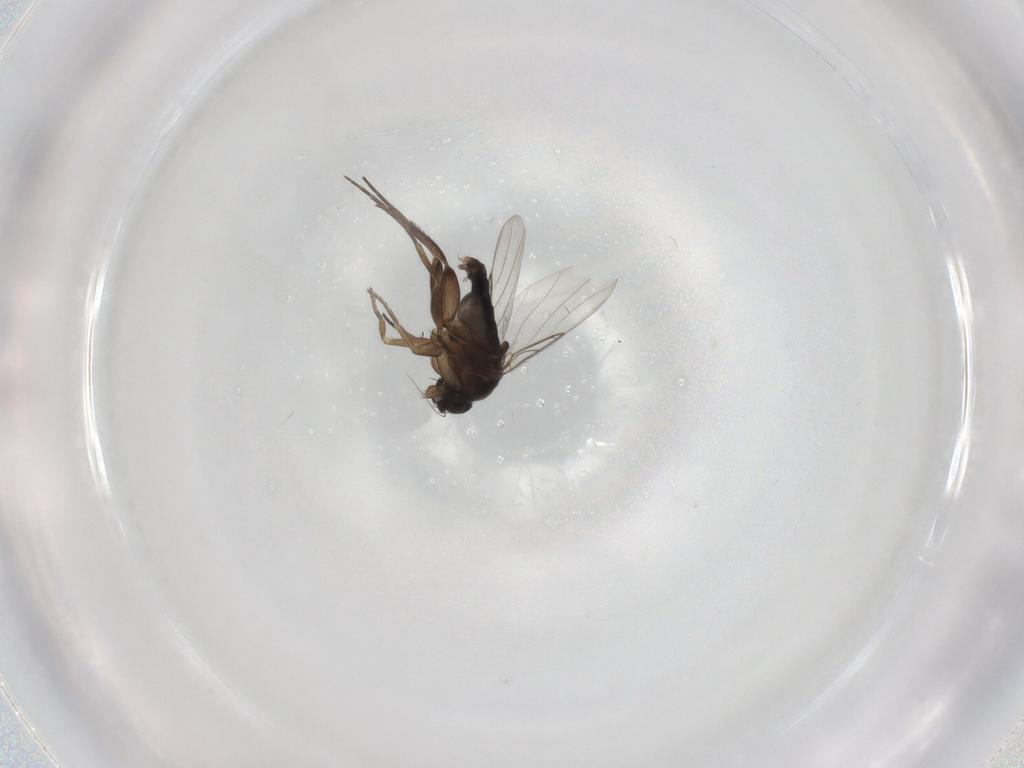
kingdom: Animalia
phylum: Arthropoda
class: Insecta
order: Diptera
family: Phoridae
